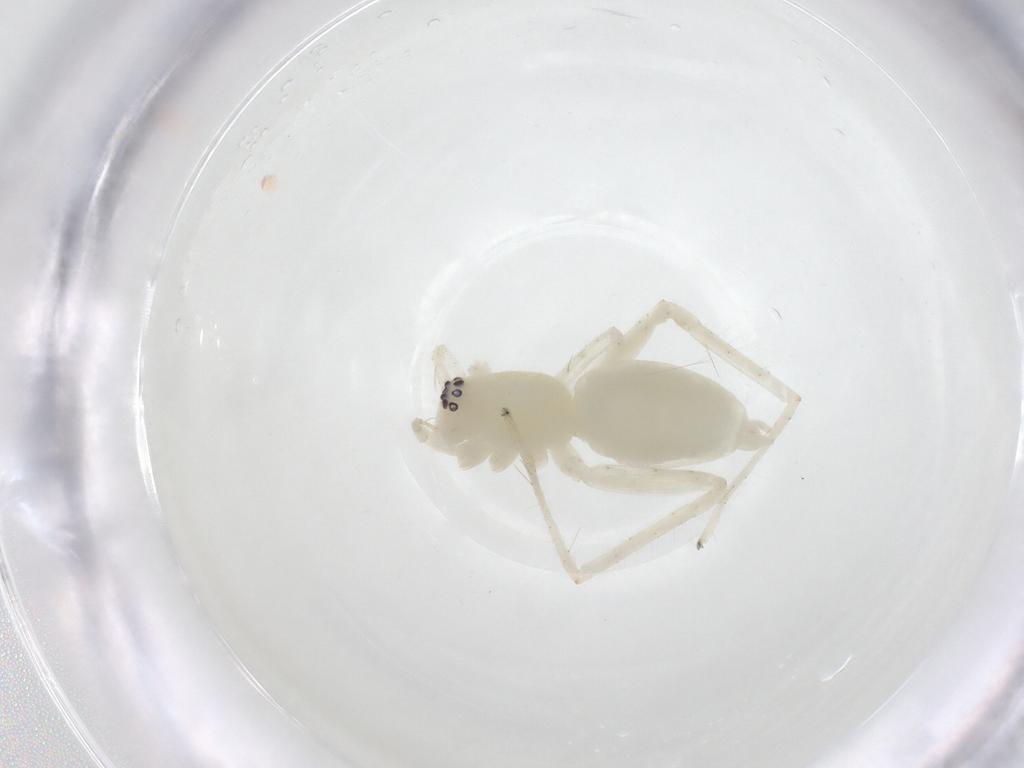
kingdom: Animalia
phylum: Arthropoda
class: Arachnida
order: Araneae
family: Anyphaenidae
